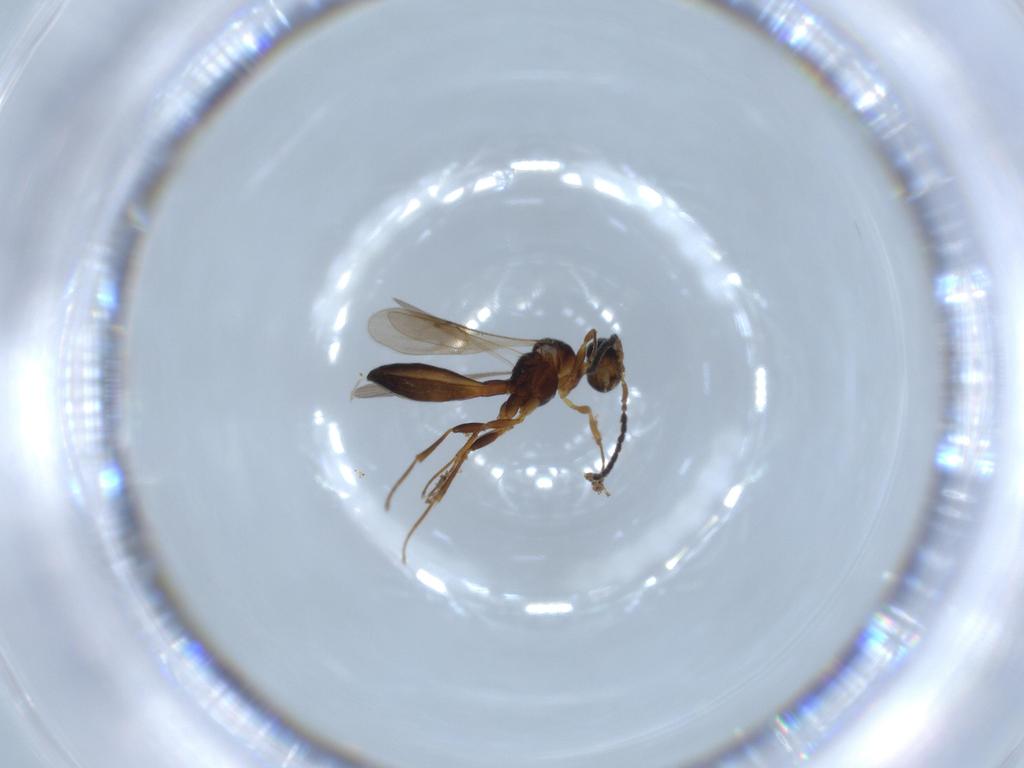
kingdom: Animalia
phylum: Arthropoda
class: Insecta
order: Hymenoptera
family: Scelionidae
